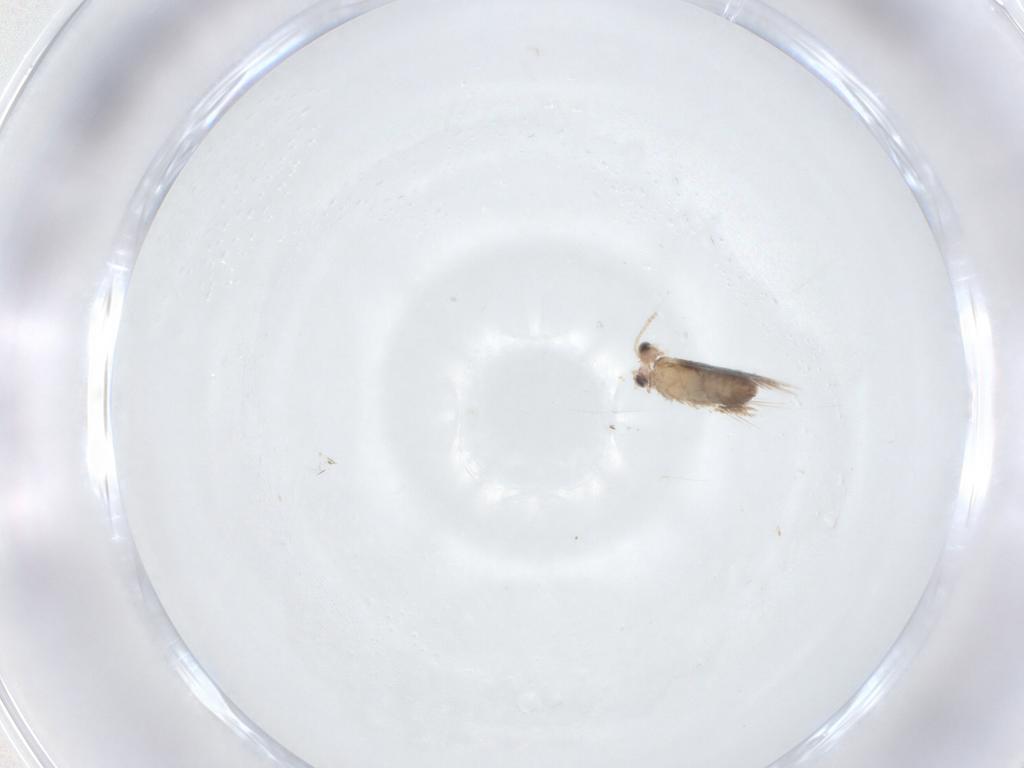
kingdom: Animalia
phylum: Arthropoda
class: Insecta
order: Lepidoptera
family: Nepticulidae
